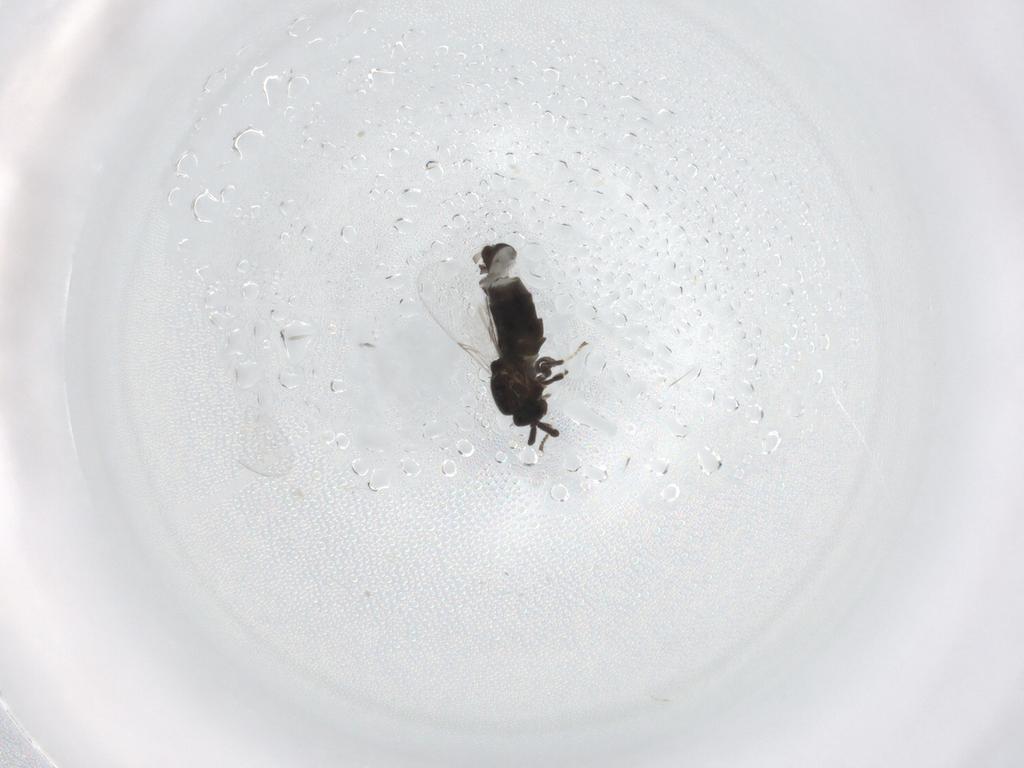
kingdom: Animalia
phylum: Arthropoda
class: Insecta
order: Diptera
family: Scatopsidae
